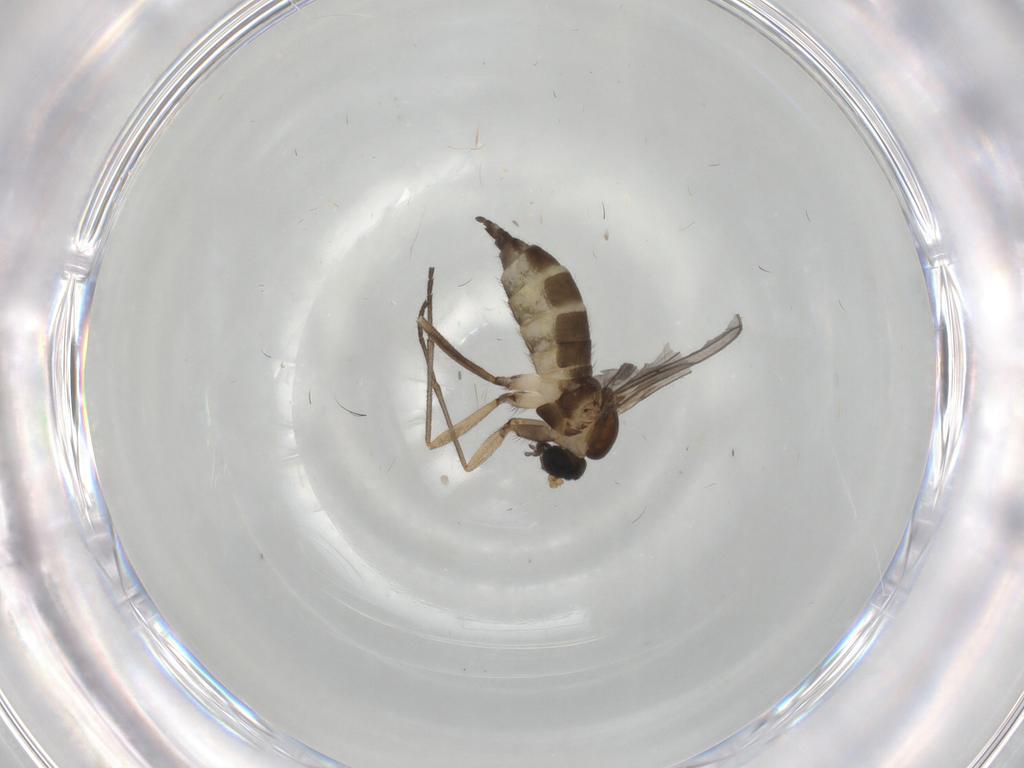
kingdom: Animalia
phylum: Arthropoda
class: Insecta
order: Diptera
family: Sciaridae
